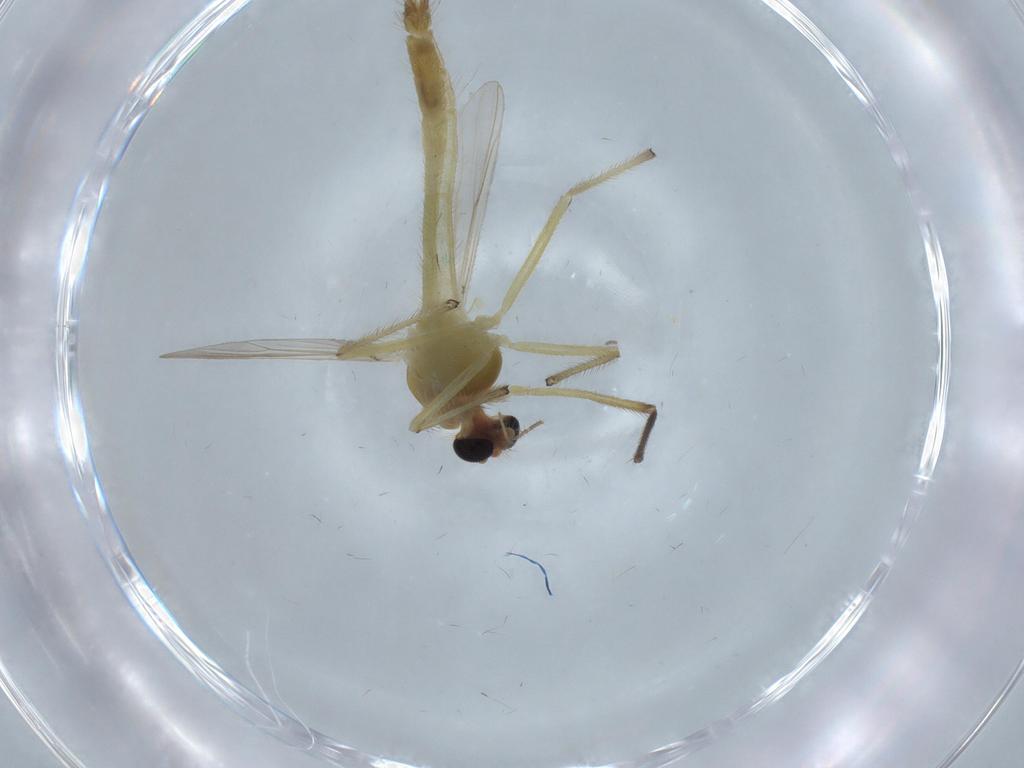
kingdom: Animalia
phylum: Arthropoda
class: Insecta
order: Diptera
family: Chironomidae
